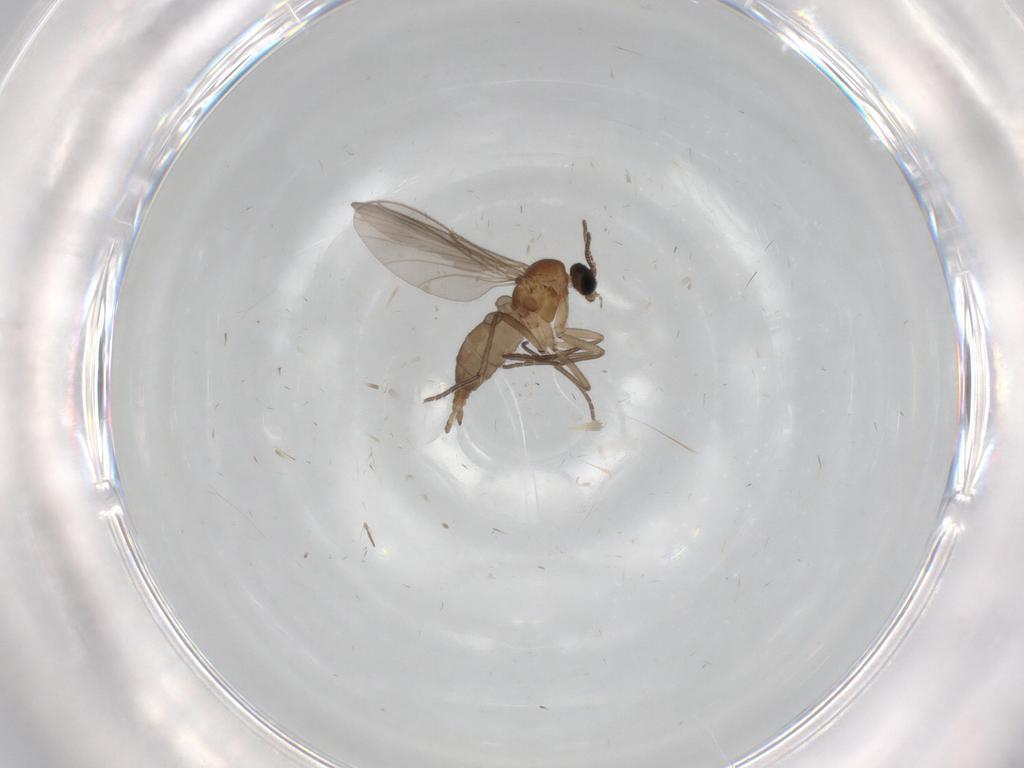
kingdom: Animalia
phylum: Arthropoda
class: Insecta
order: Diptera
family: Sciaridae
